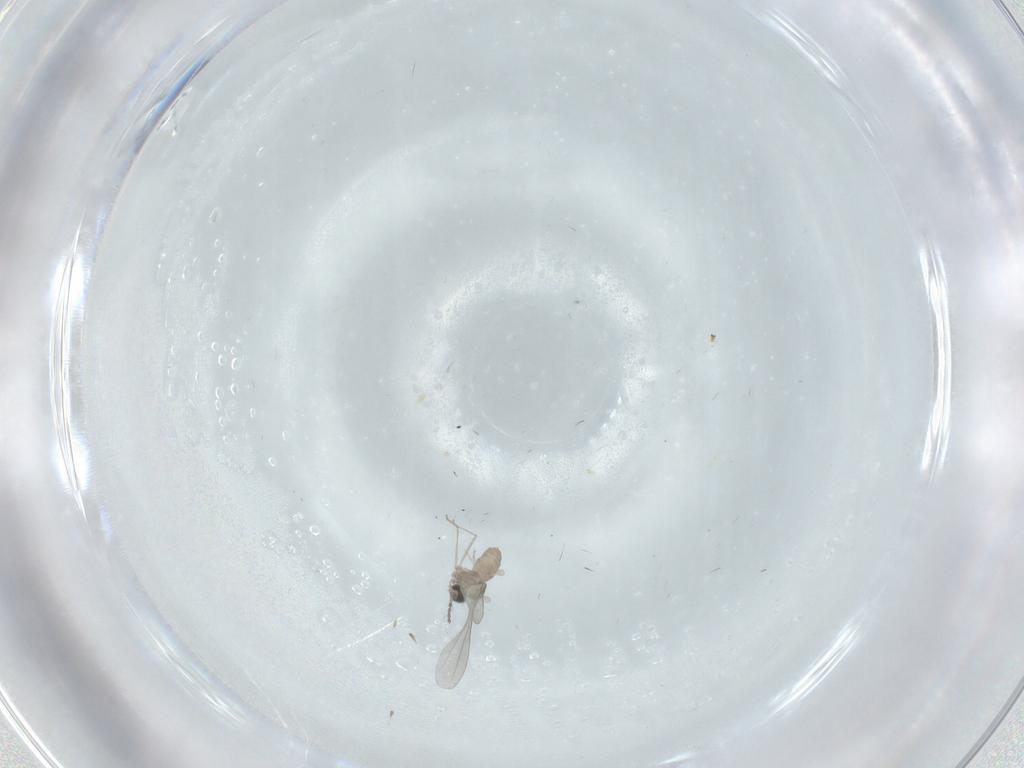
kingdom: Animalia
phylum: Arthropoda
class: Insecta
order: Diptera
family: Cecidomyiidae
